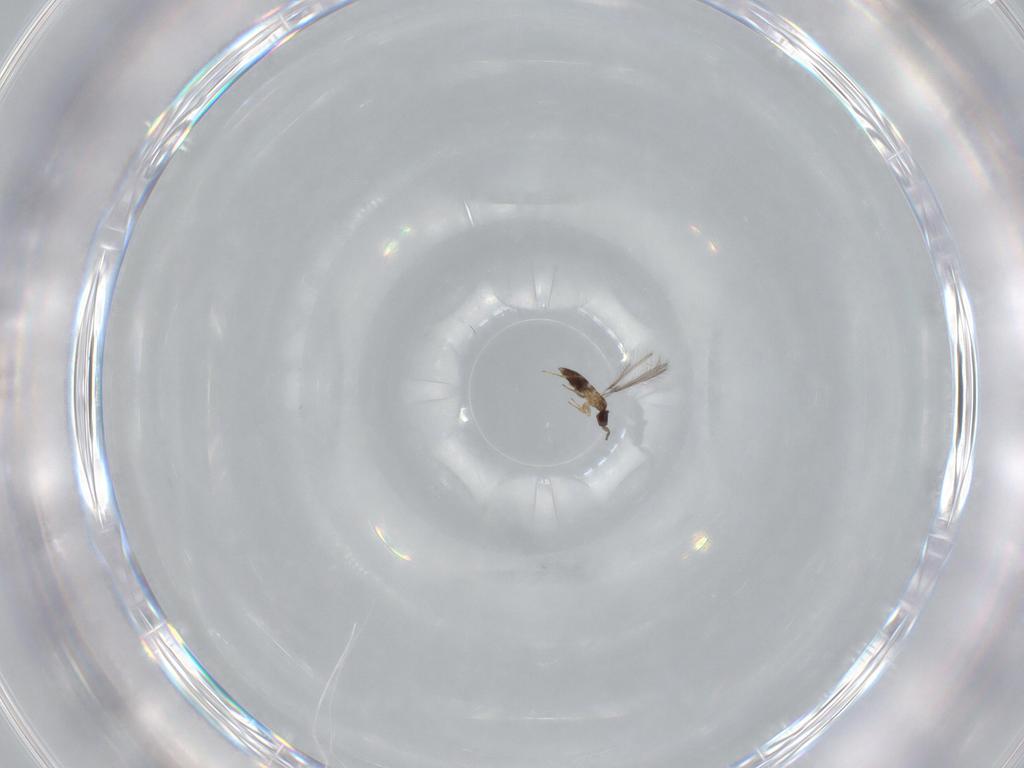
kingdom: Animalia
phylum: Arthropoda
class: Insecta
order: Hymenoptera
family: Mymaridae
